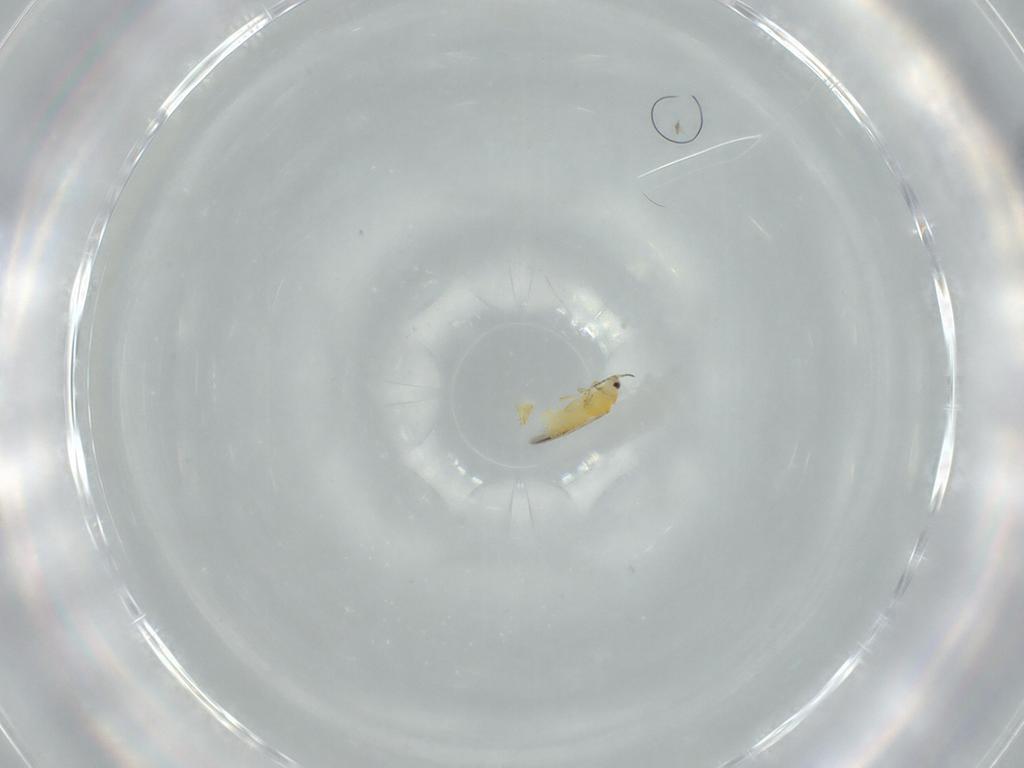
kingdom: Animalia
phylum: Arthropoda
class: Insecta
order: Thysanoptera
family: Thripidae
